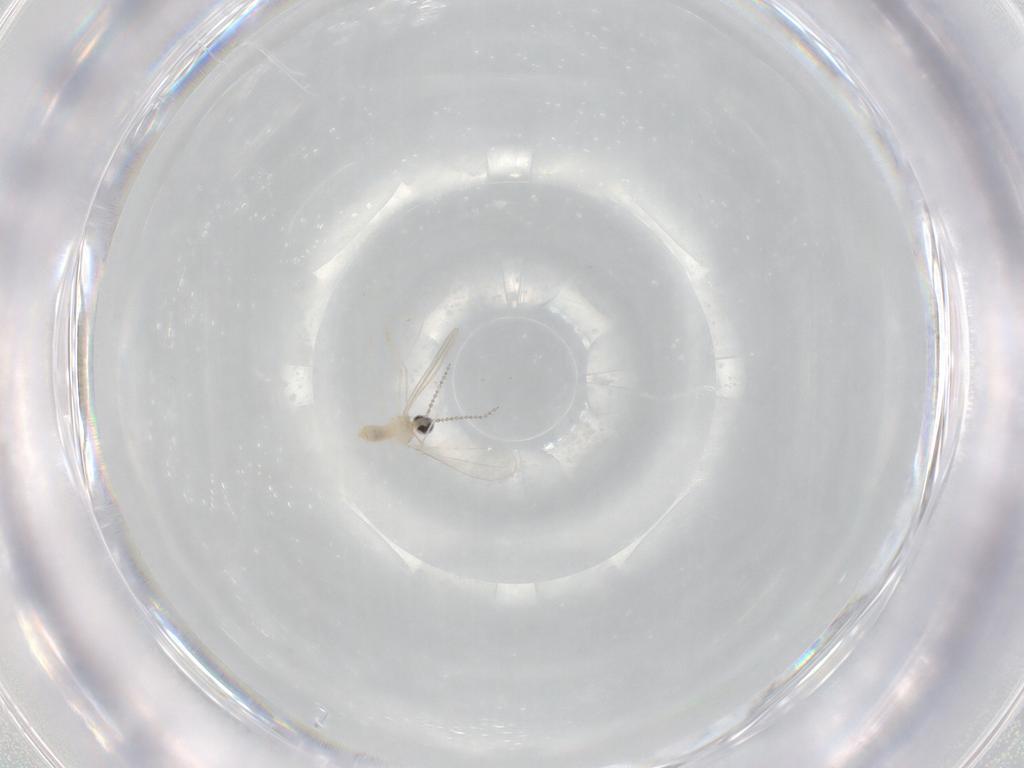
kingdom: Animalia
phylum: Arthropoda
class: Insecta
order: Diptera
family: Cecidomyiidae
